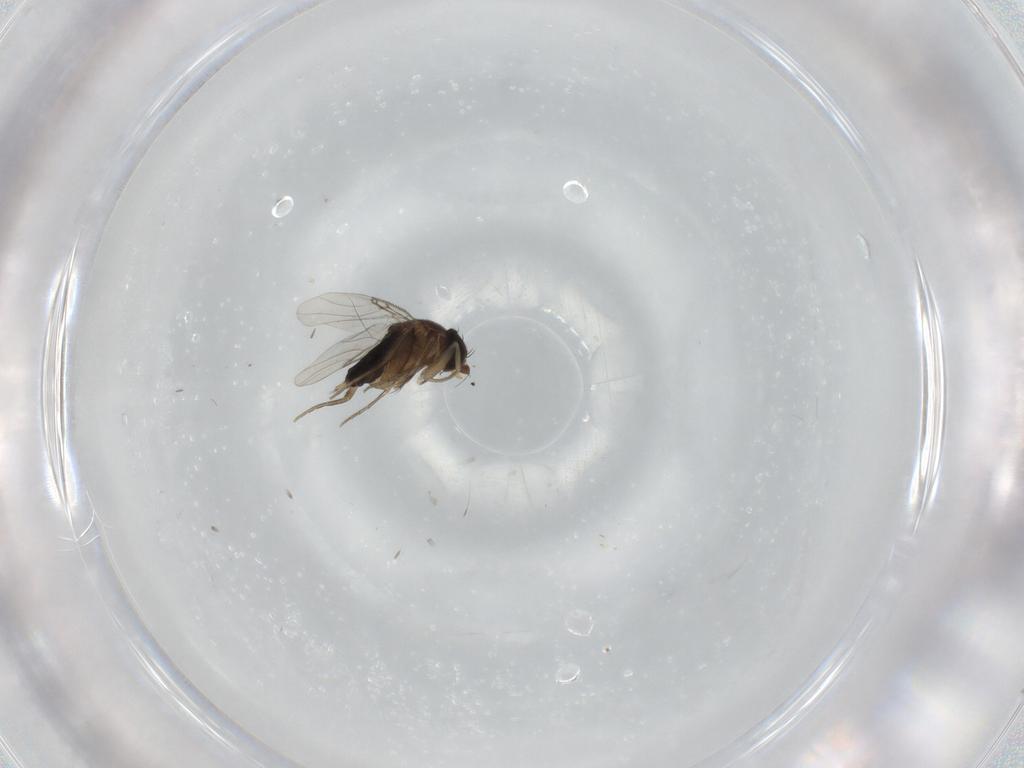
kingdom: Animalia
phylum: Arthropoda
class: Insecta
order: Diptera
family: Phoridae
